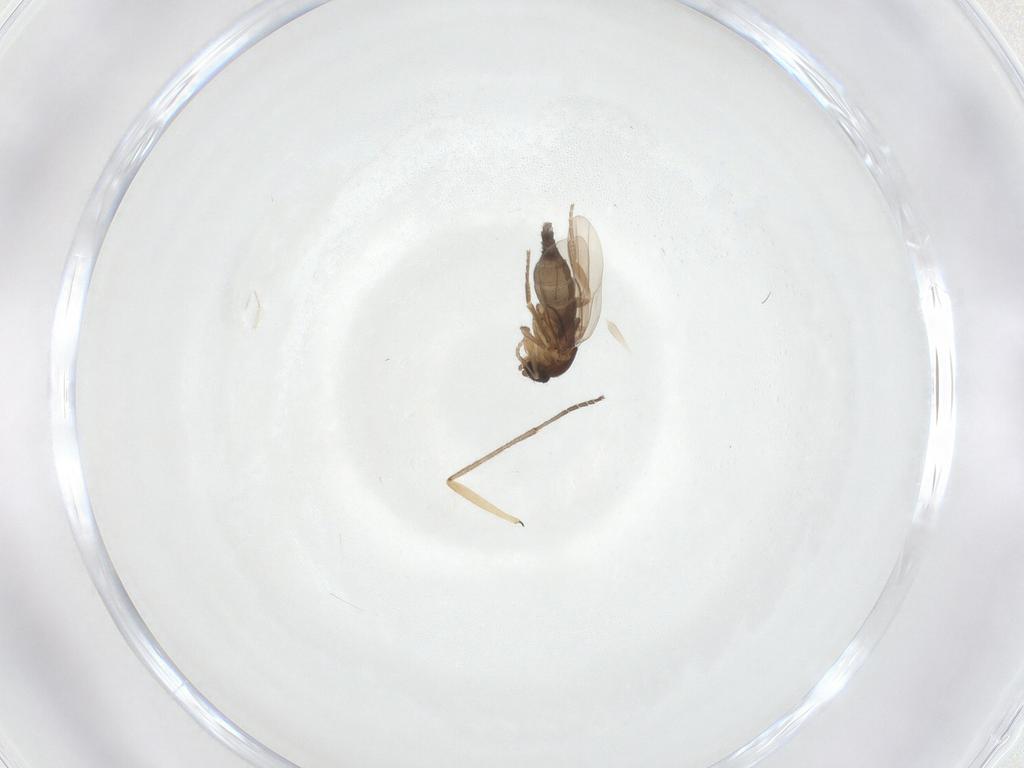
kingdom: Animalia
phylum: Arthropoda
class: Insecta
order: Diptera
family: Phoridae
